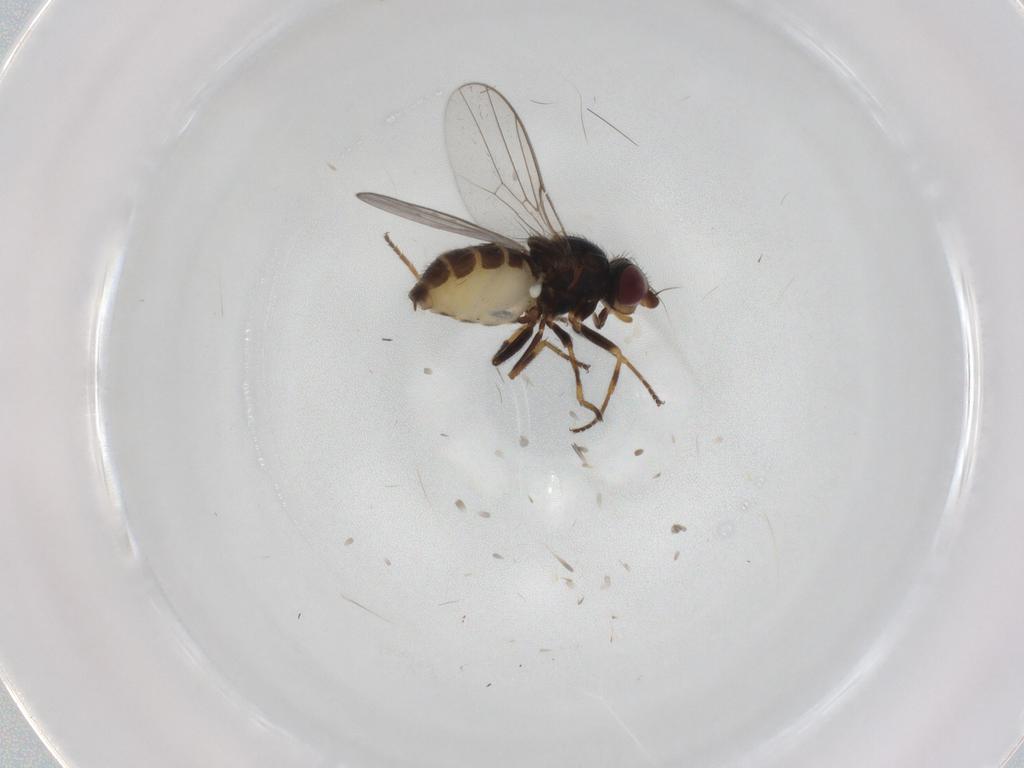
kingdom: Animalia
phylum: Arthropoda
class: Insecta
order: Diptera
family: Chloropidae
